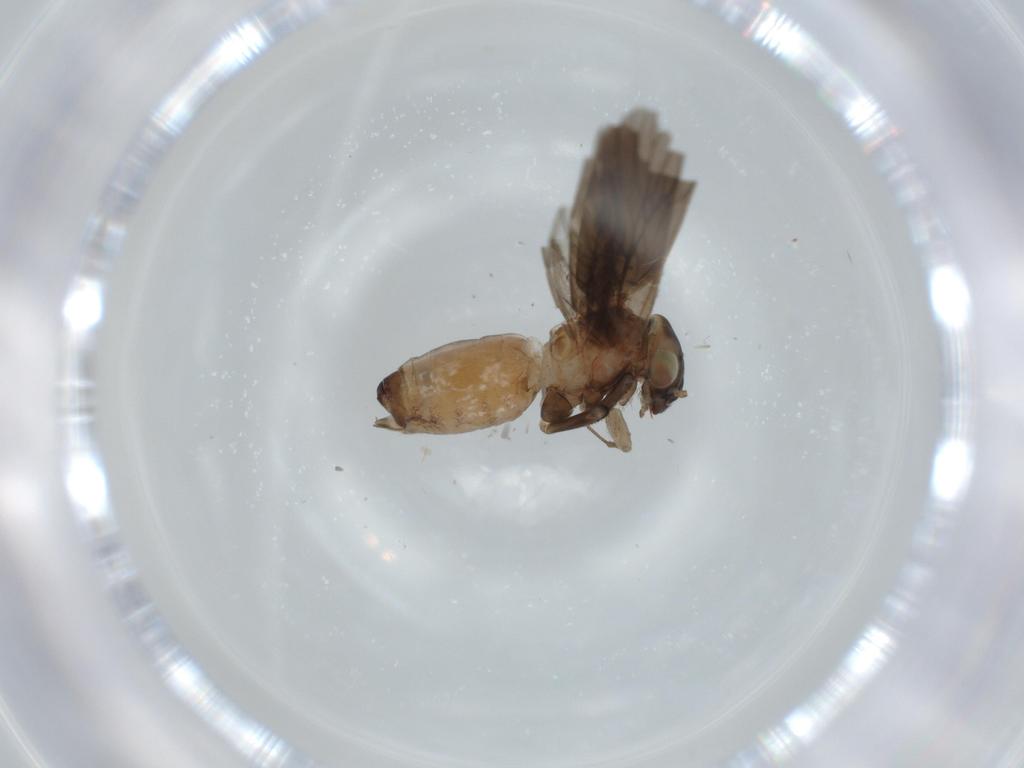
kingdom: Animalia
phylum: Arthropoda
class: Insecta
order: Psocodea
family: Lepidopsocidae
